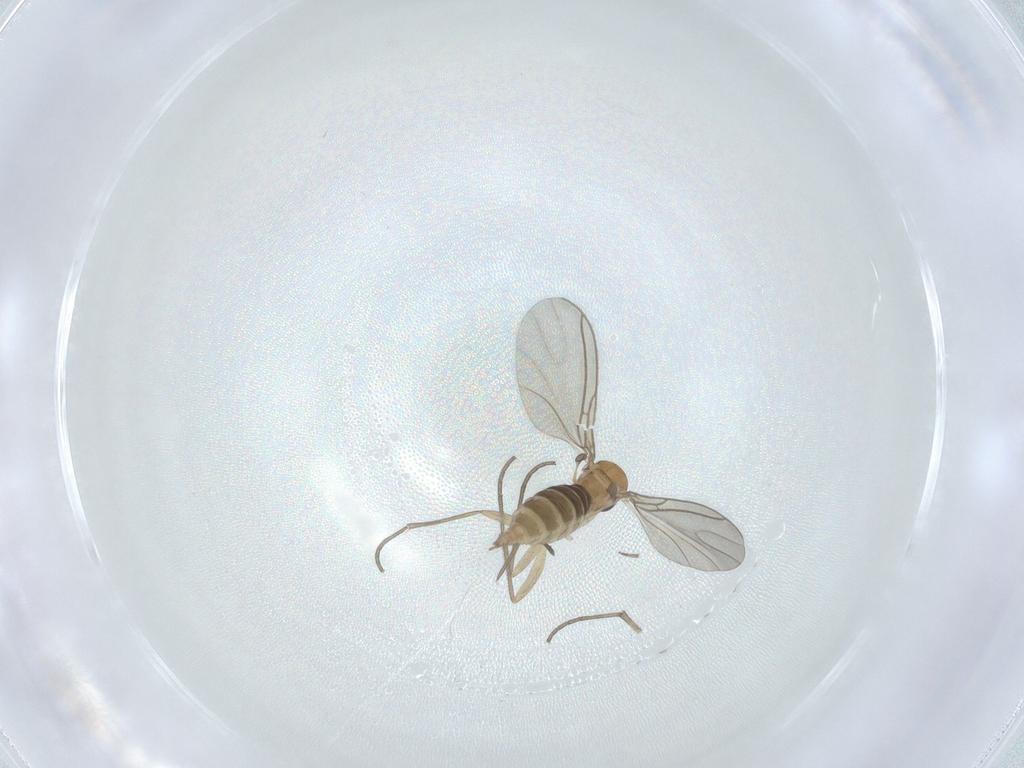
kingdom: Animalia
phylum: Arthropoda
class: Insecta
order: Diptera
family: Sciaridae
